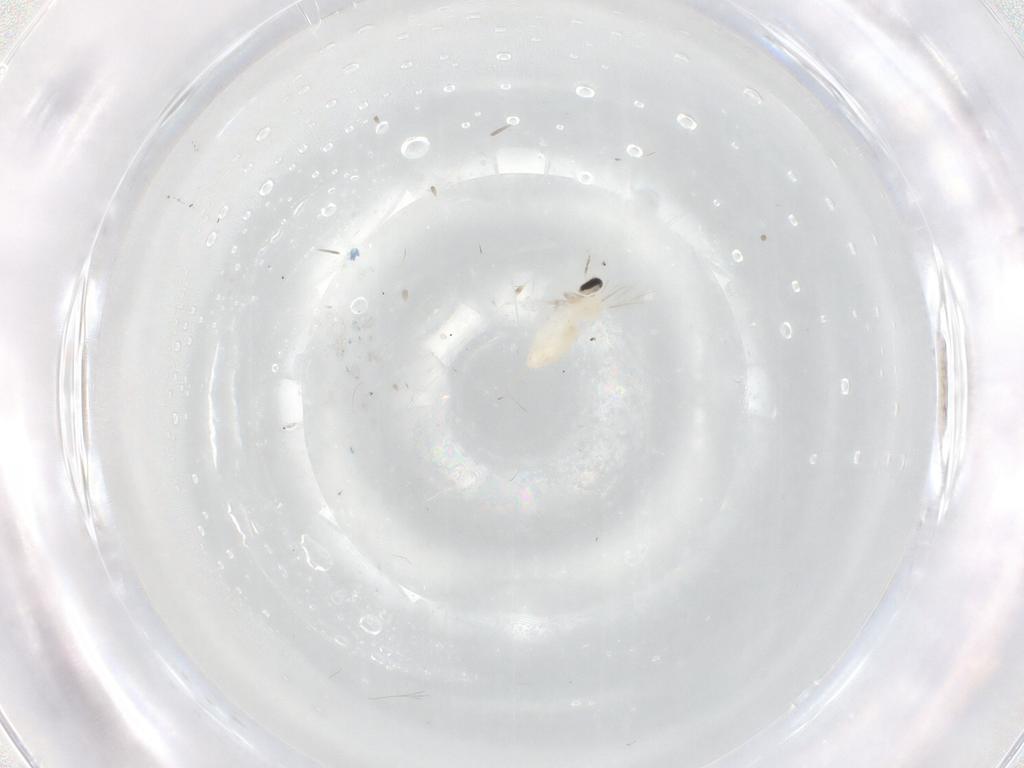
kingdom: Animalia
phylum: Arthropoda
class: Insecta
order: Diptera
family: Cecidomyiidae
